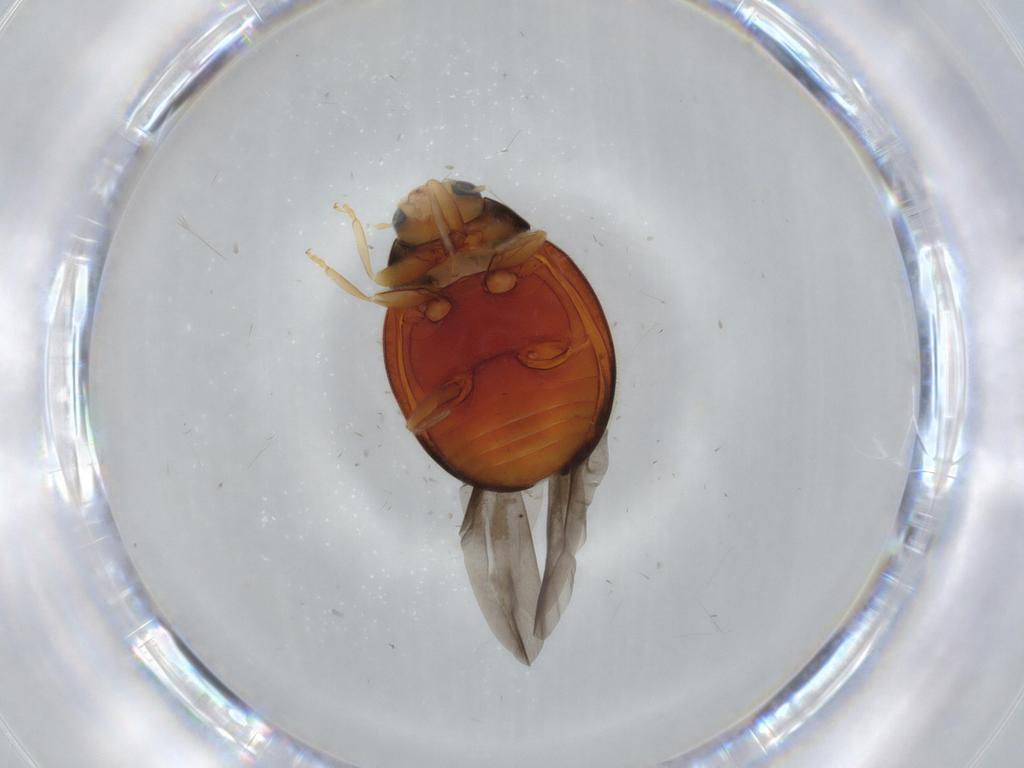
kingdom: Animalia
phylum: Arthropoda
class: Insecta
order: Coleoptera
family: Coccinellidae
